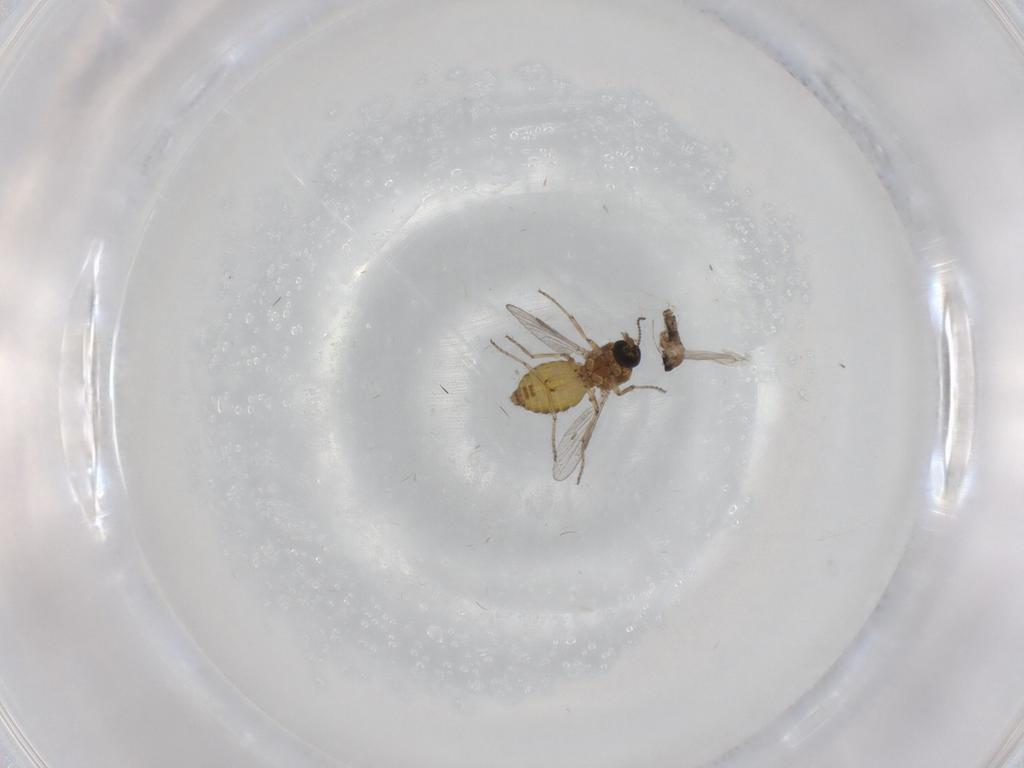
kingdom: Animalia
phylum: Arthropoda
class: Insecta
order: Diptera
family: Ceratopogonidae
